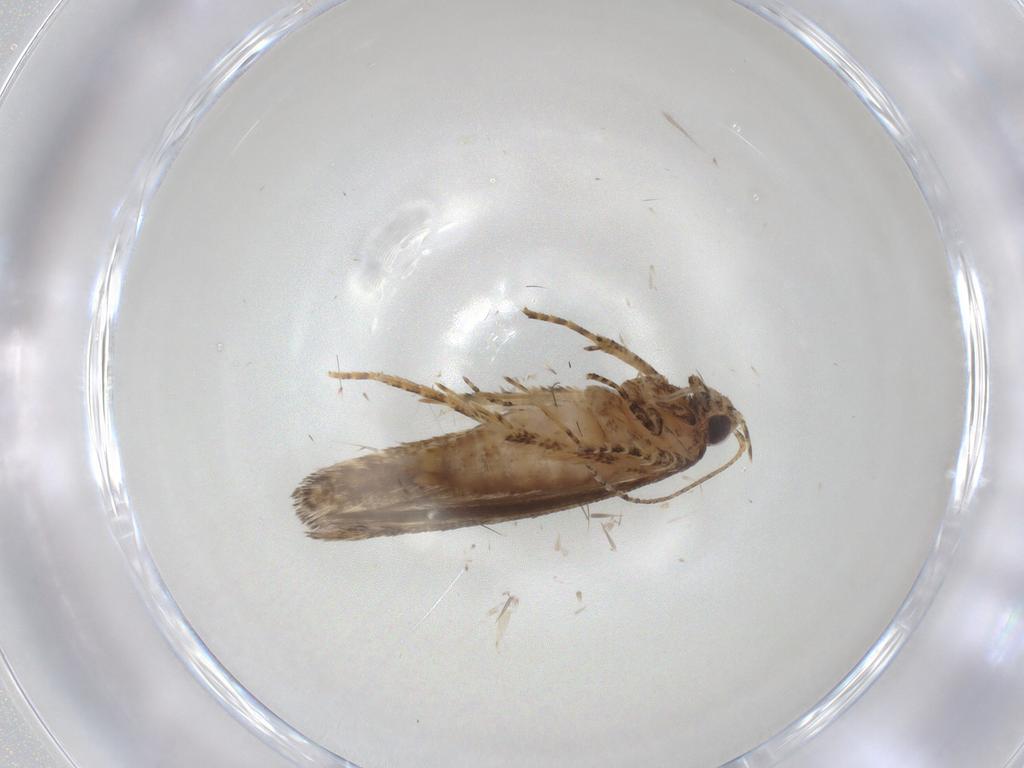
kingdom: Animalia
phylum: Arthropoda
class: Insecta
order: Lepidoptera
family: Gelechiidae
